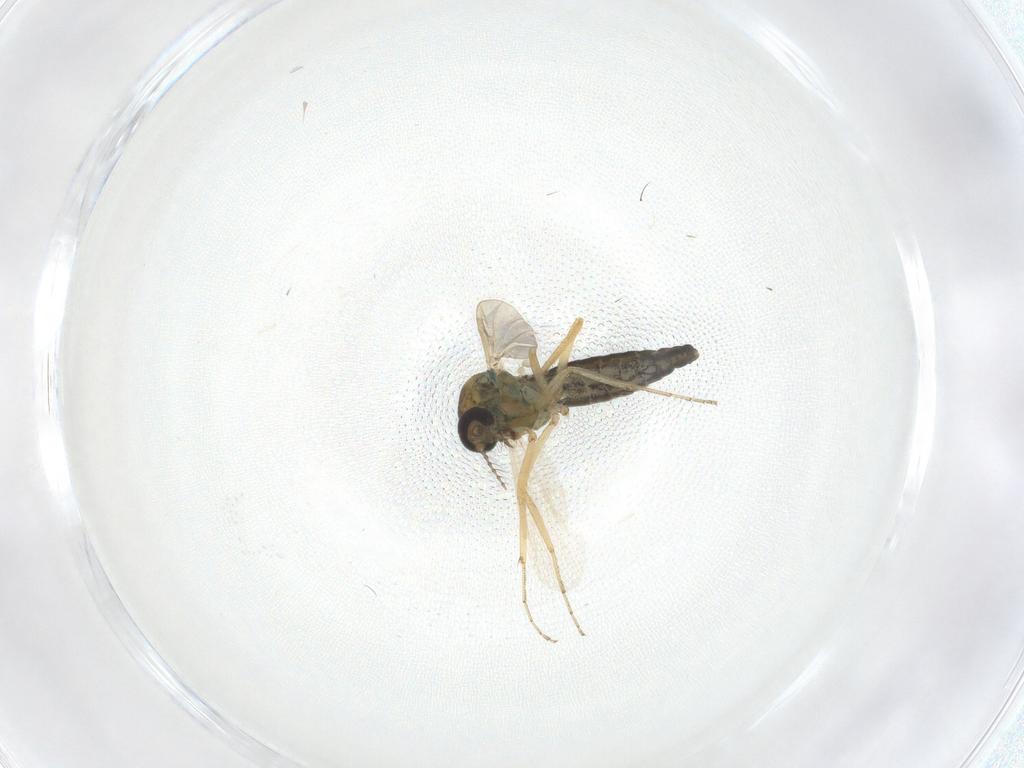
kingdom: Animalia
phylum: Arthropoda
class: Insecta
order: Diptera
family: Ceratopogonidae
